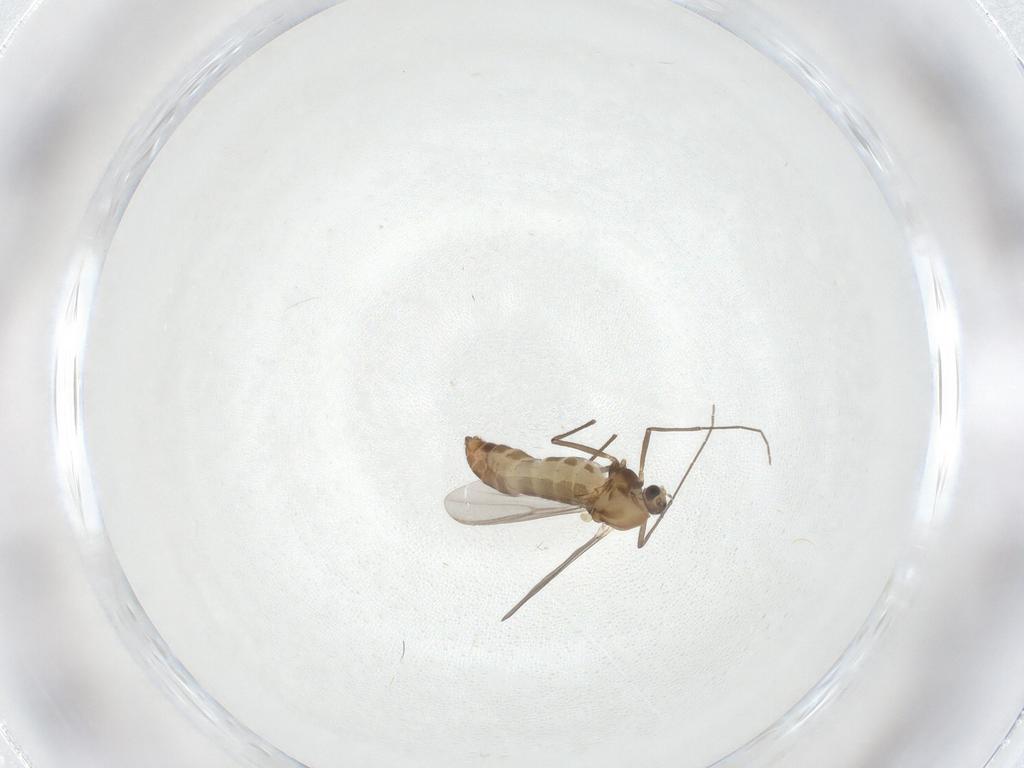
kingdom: Animalia
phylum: Arthropoda
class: Insecta
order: Diptera
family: Chironomidae
